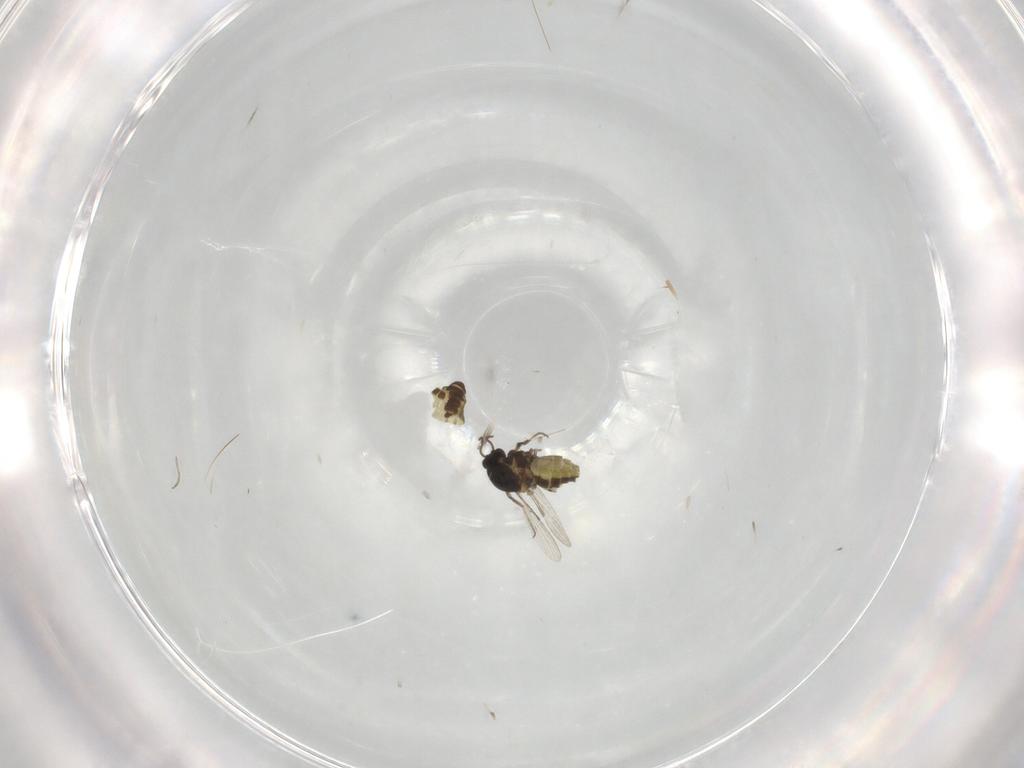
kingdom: Animalia
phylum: Arthropoda
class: Insecta
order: Diptera
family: Ceratopogonidae
